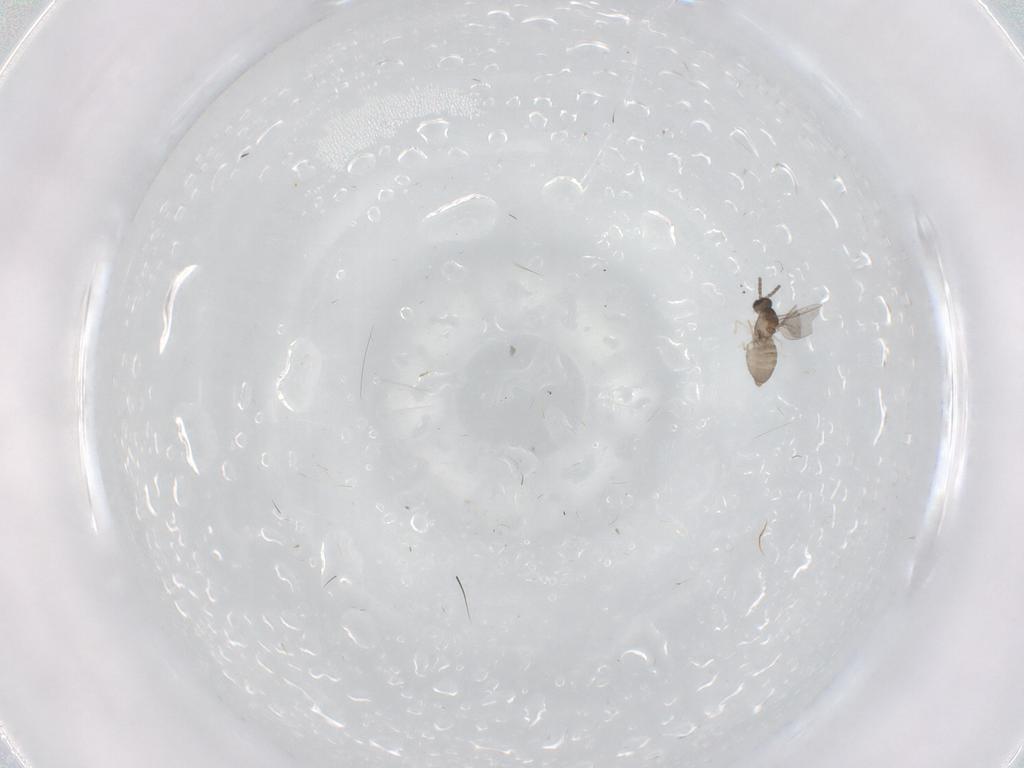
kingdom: Animalia
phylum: Arthropoda
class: Insecta
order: Diptera
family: Cecidomyiidae
